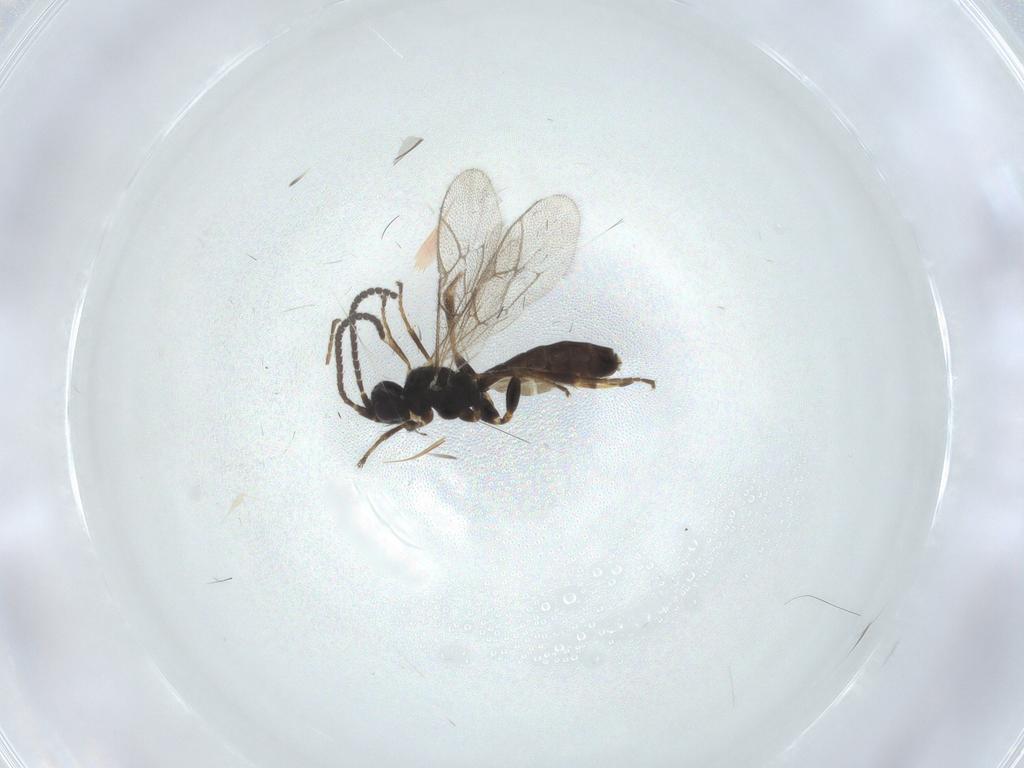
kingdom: Animalia
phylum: Arthropoda
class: Insecta
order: Hymenoptera
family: Ichneumonidae
